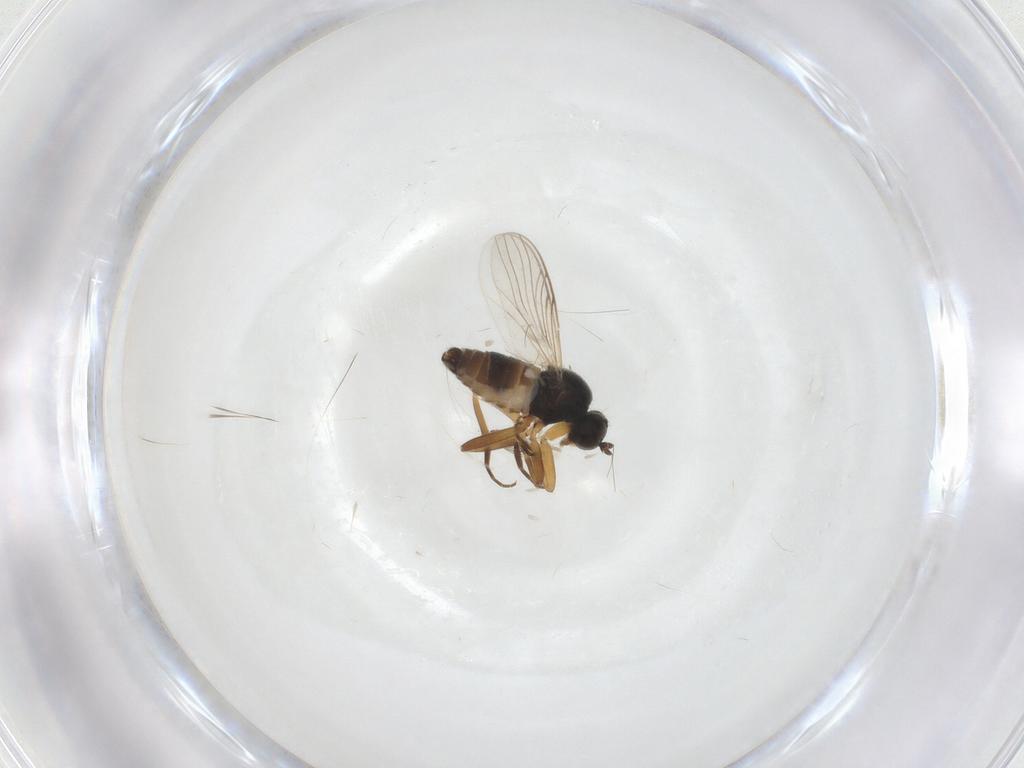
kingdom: Animalia
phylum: Arthropoda
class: Insecta
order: Diptera
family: Hybotidae
